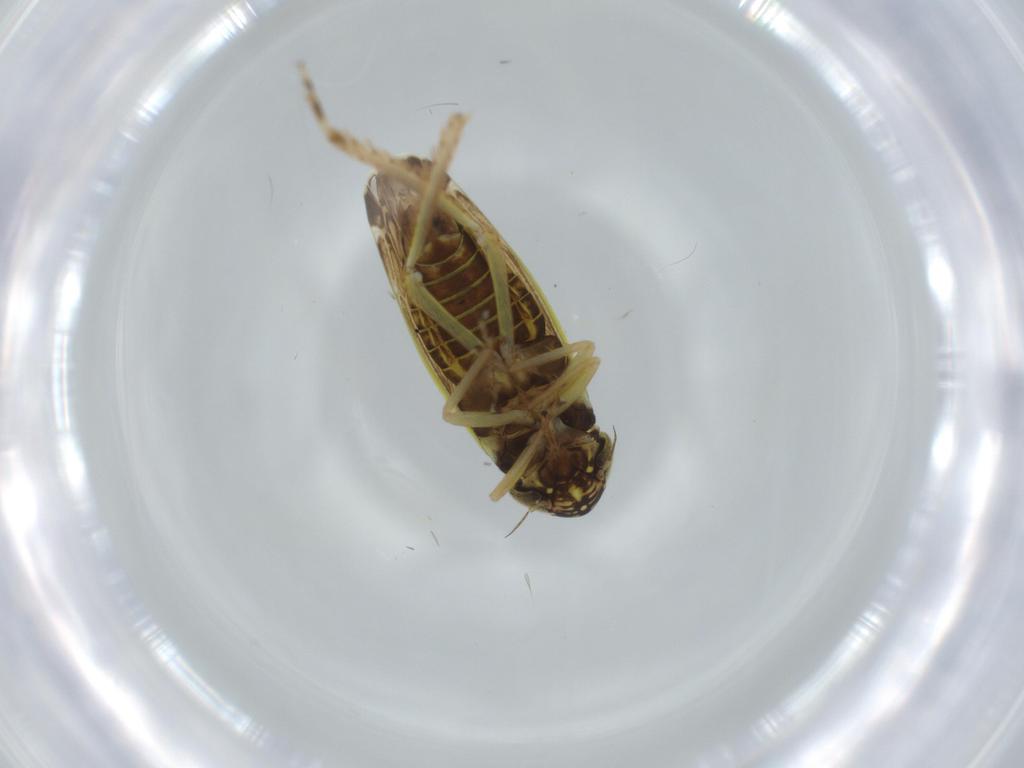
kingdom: Animalia
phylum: Arthropoda
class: Insecta
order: Hemiptera
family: Cicadellidae
